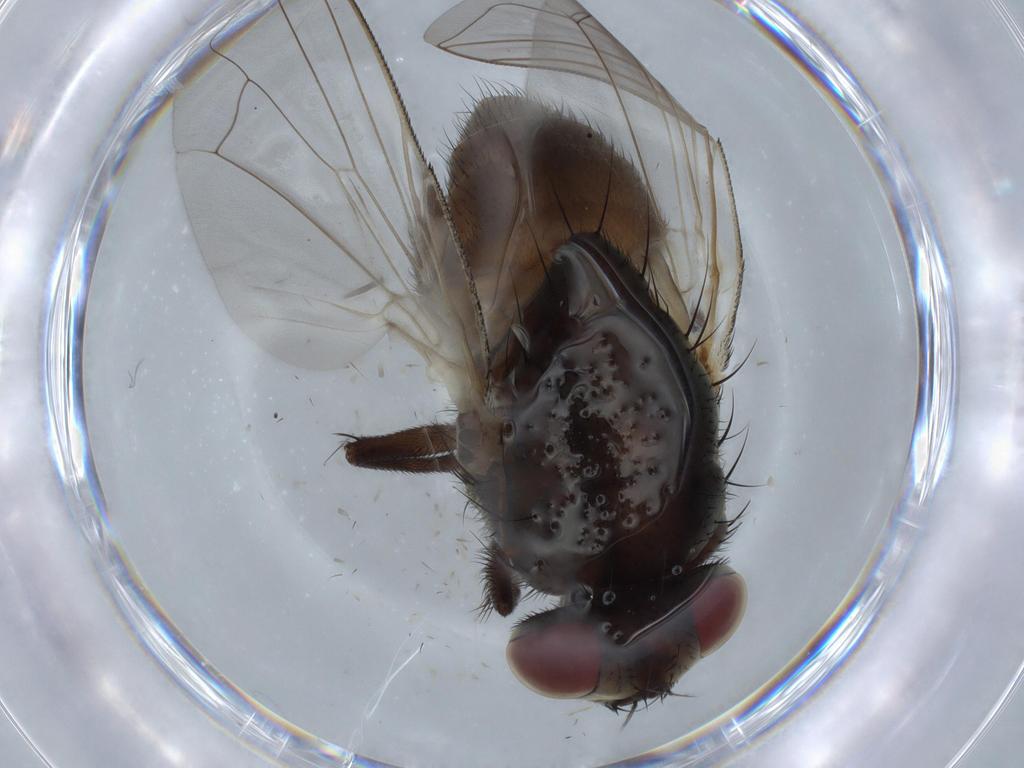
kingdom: Animalia
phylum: Arthropoda
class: Insecta
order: Diptera
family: Ceratopogonidae
